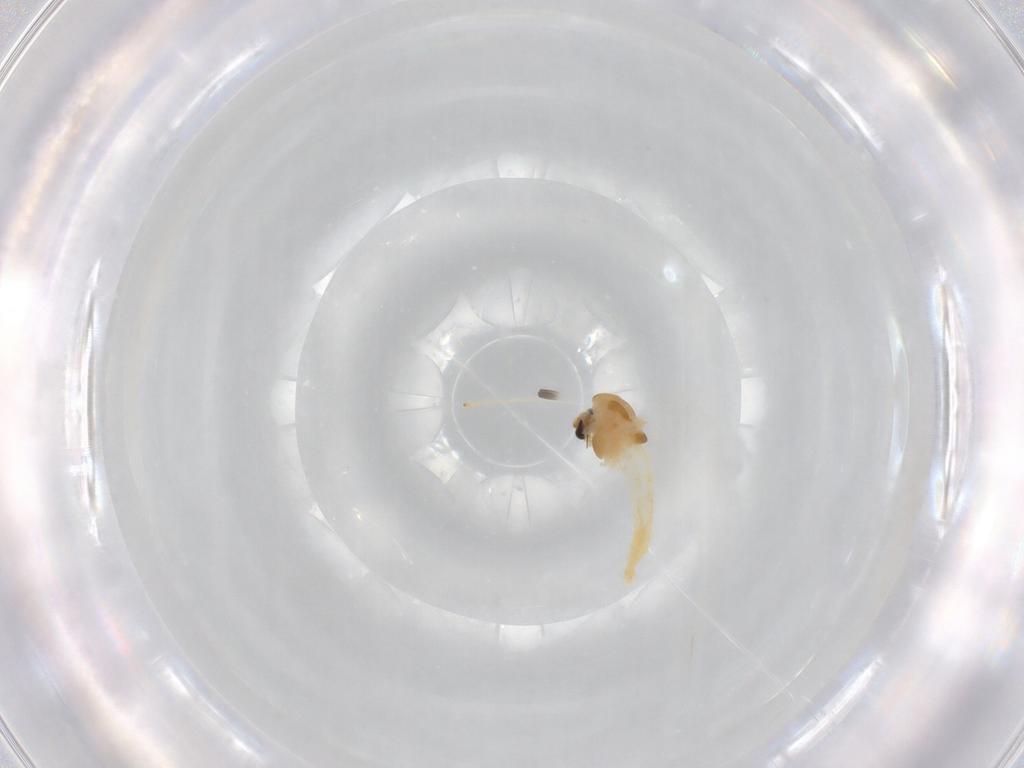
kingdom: Animalia
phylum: Arthropoda
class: Insecta
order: Diptera
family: Chironomidae
